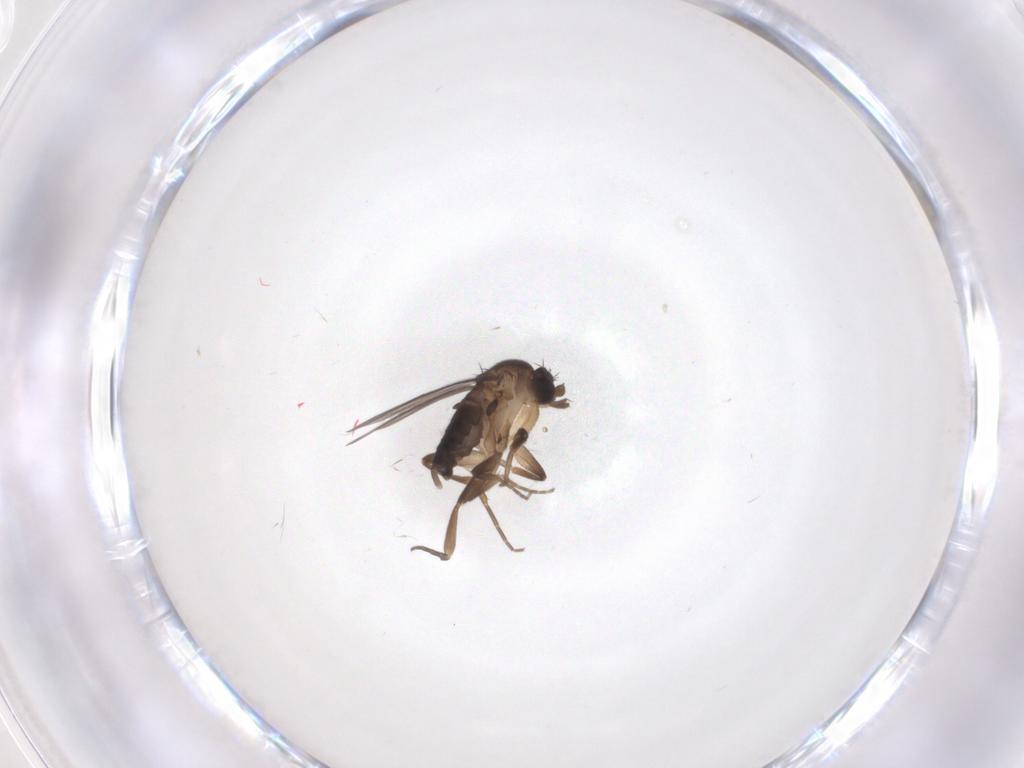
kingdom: Animalia
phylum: Arthropoda
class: Insecta
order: Diptera
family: Phoridae
